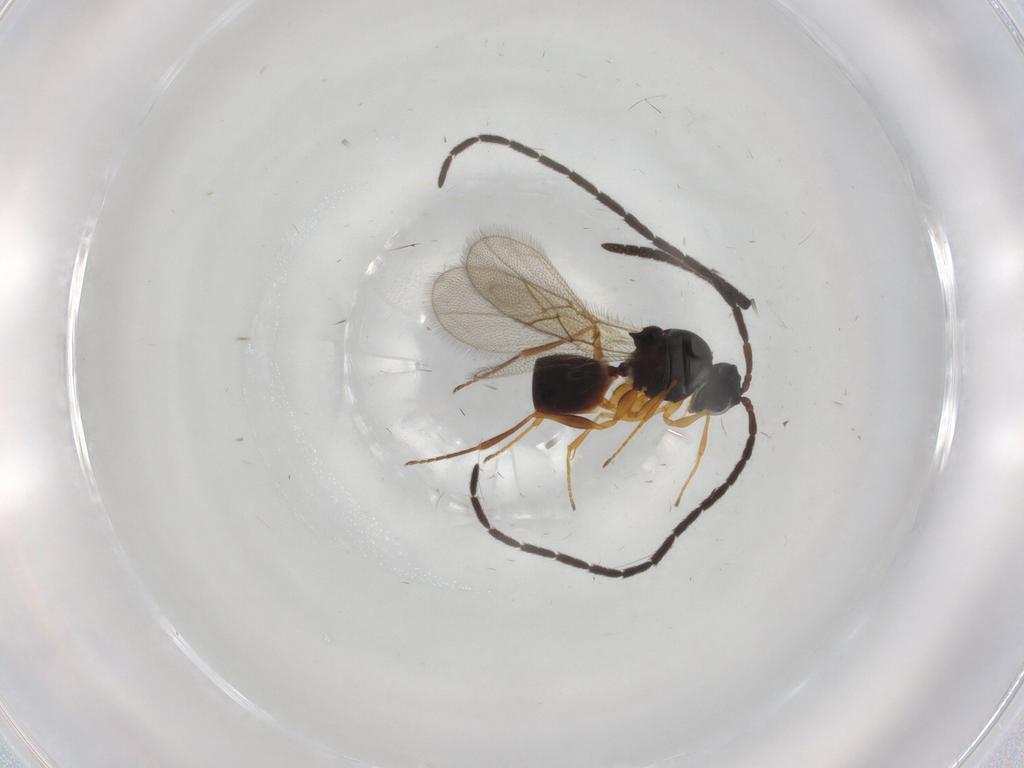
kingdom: Animalia
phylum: Arthropoda
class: Insecta
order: Hymenoptera
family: Figitidae
